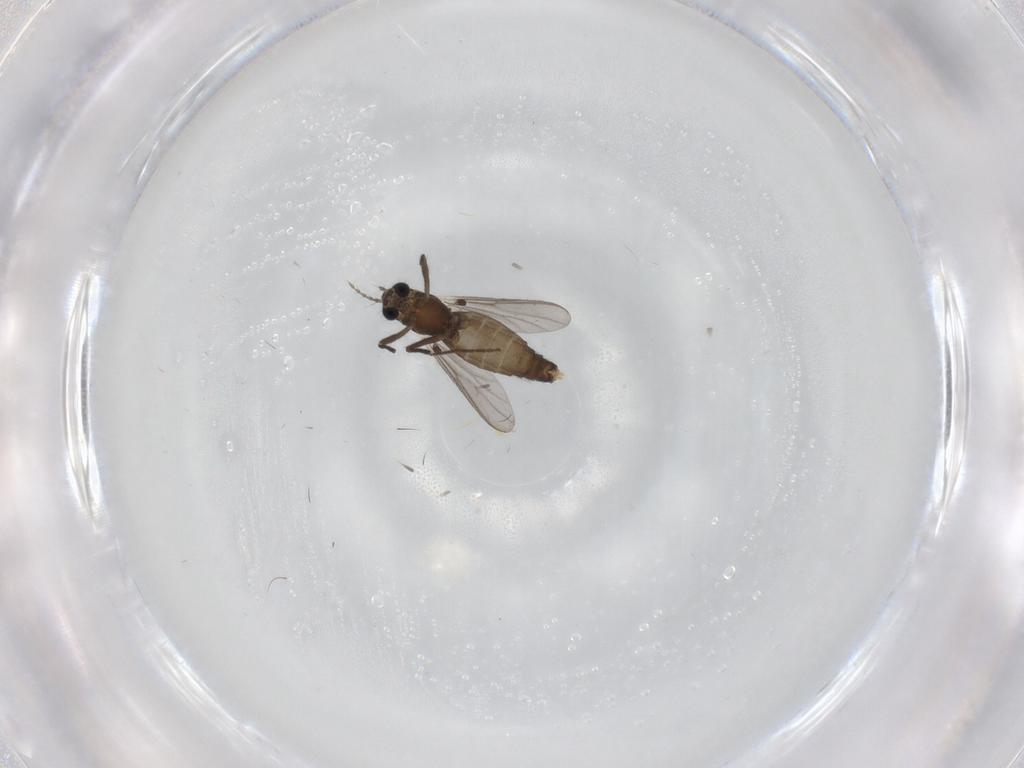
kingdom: Animalia
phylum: Arthropoda
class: Insecta
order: Diptera
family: Chironomidae
